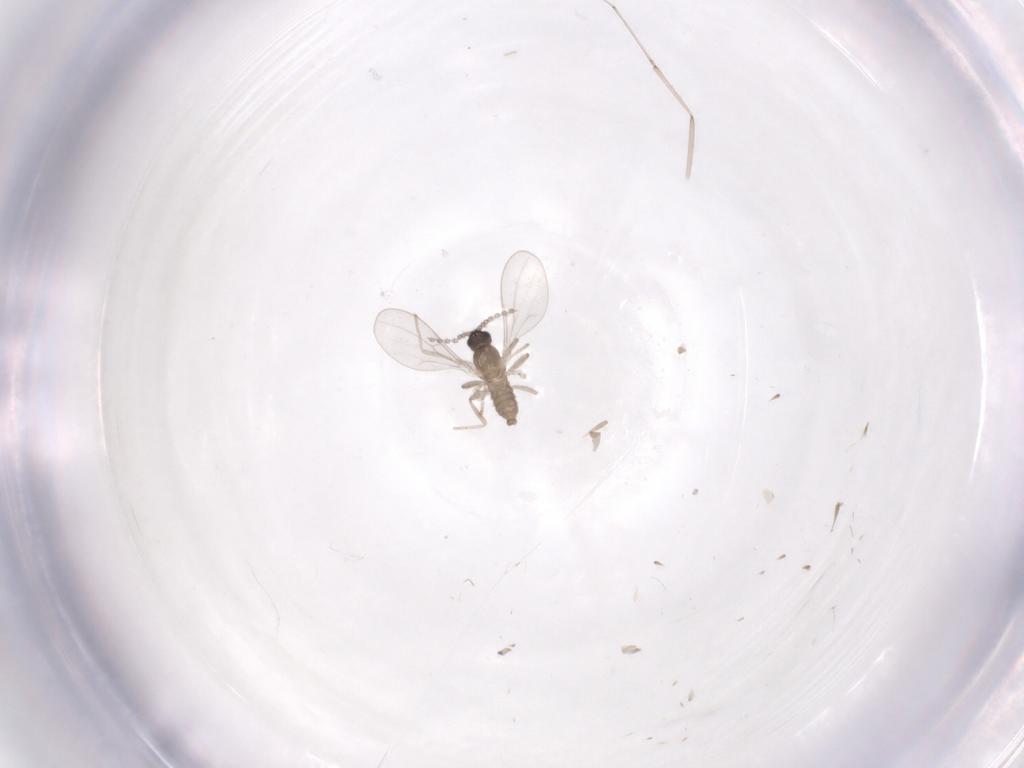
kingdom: Animalia
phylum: Arthropoda
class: Insecta
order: Diptera
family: Cecidomyiidae
